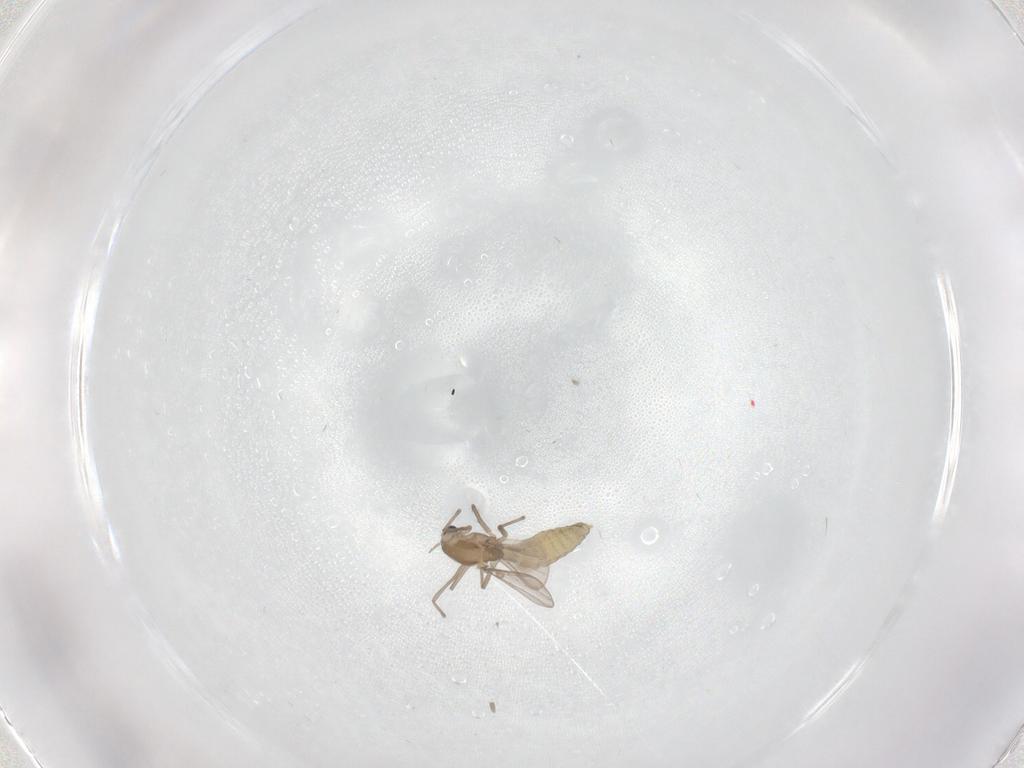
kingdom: Animalia
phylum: Arthropoda
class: Insecta
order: Diptera
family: Chironomidae
